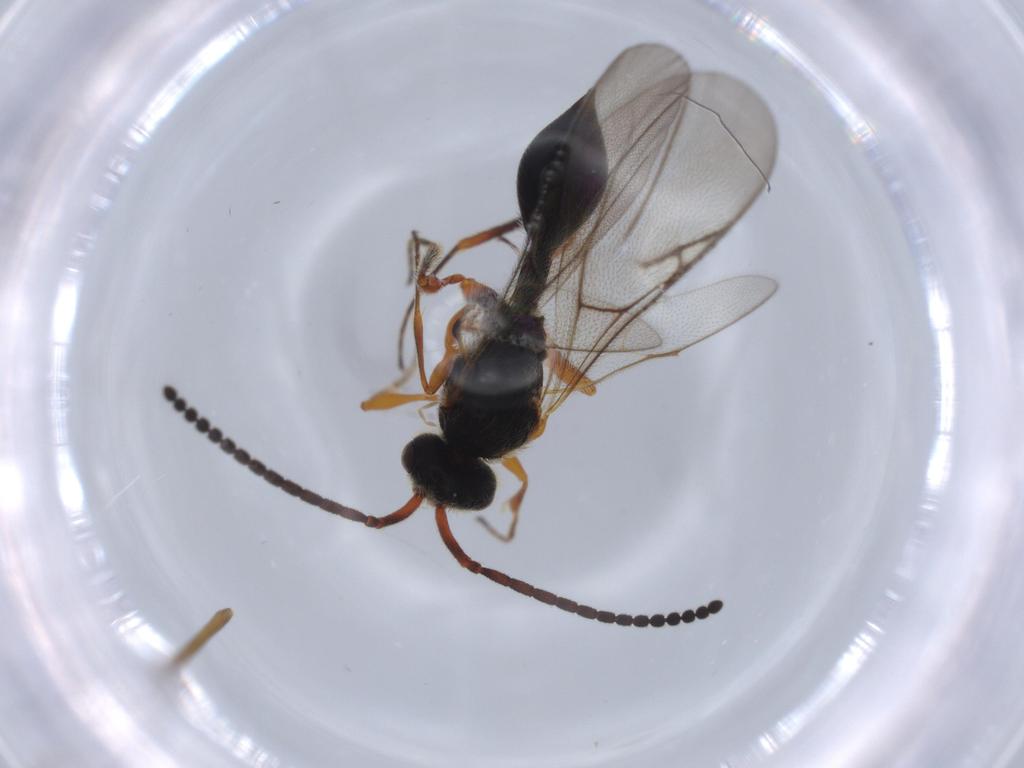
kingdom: Animalia
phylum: Arthropoda
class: Insecta
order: Hymenoptera
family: Diapriidae
